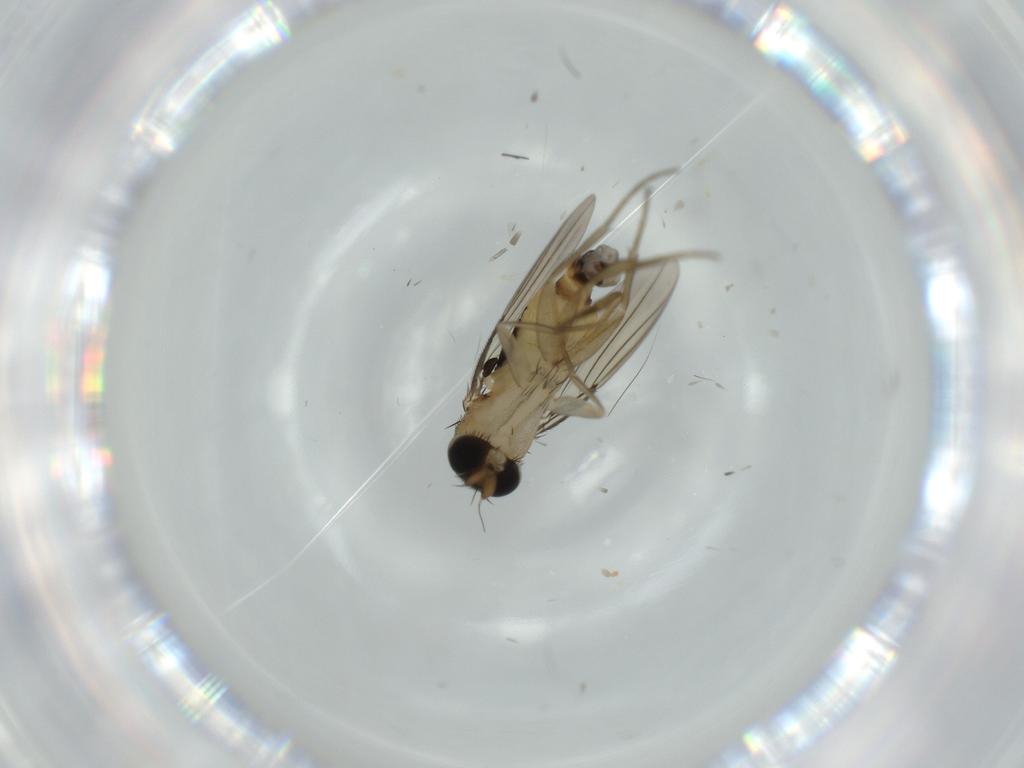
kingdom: Animalia
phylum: Arthropoda
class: Insecta
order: Diptera
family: Phoridae
